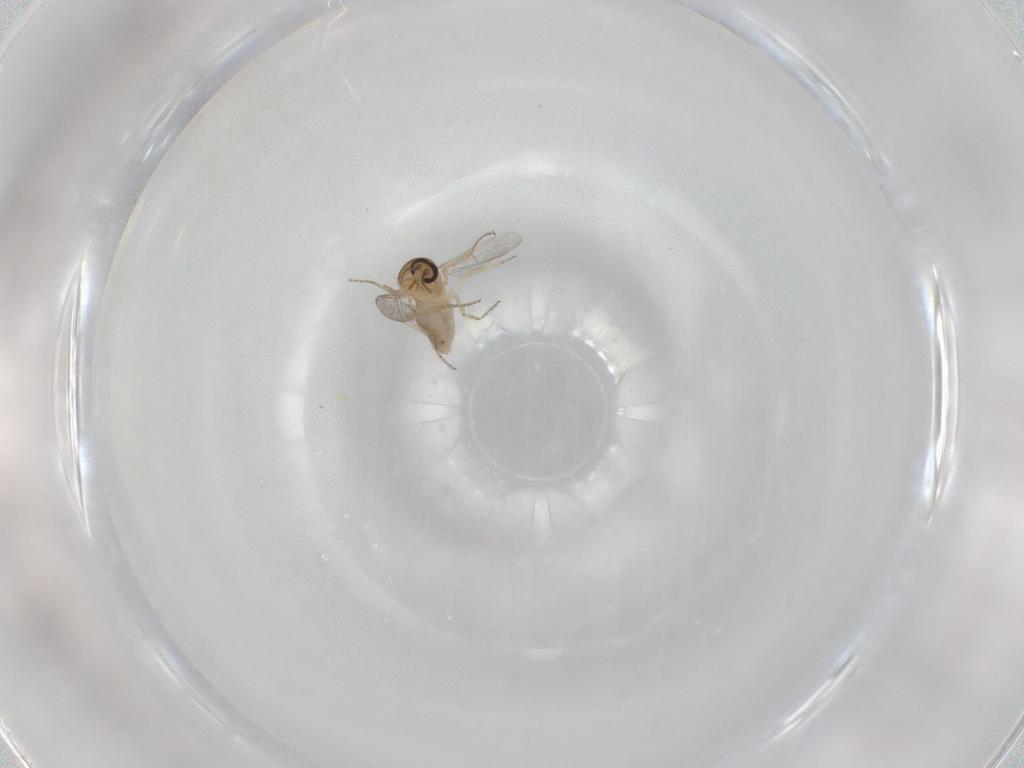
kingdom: Animalia
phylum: Arthropoda
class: Insecta
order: Diptera
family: Ceratopogonidae
